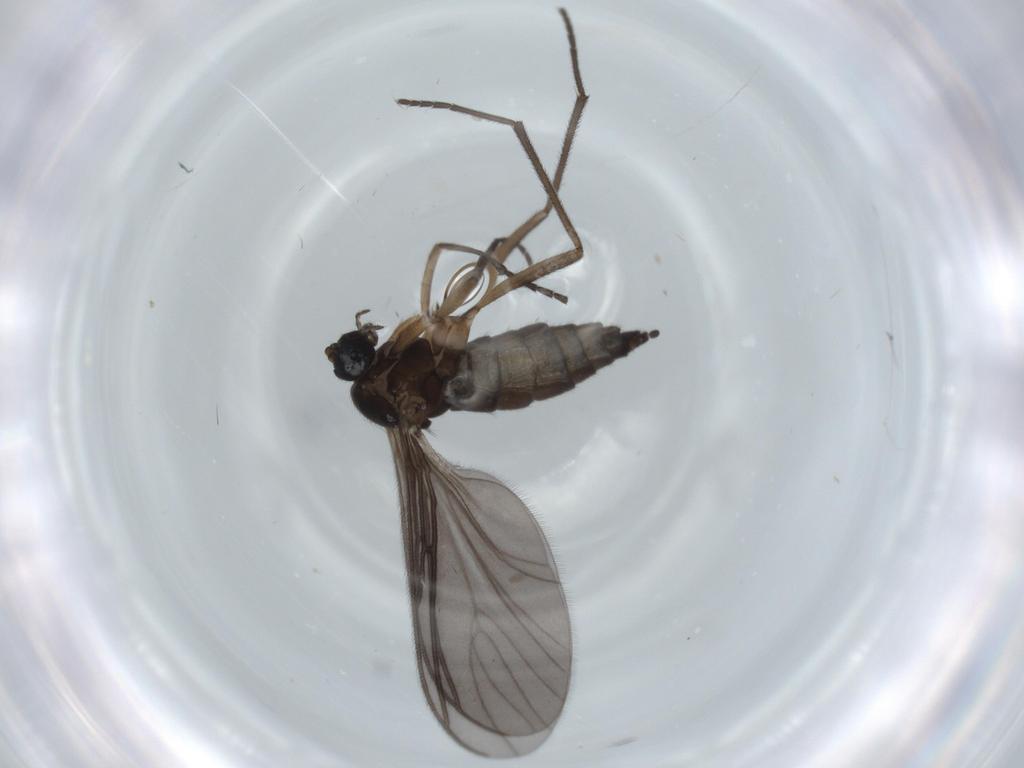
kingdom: Animalia
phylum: Arthropoda
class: Insecta
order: Diptera
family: Sciaridae
